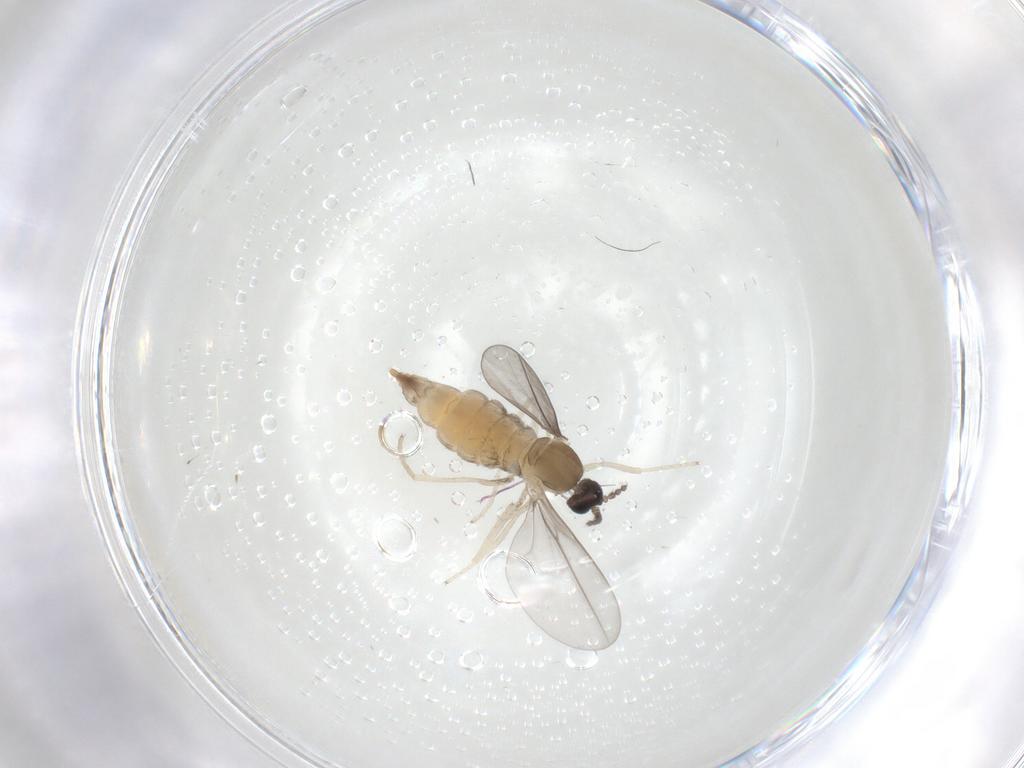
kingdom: Animalia
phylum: Arthropoda
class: Insecta
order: Diptera
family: Cecidomyiidae
